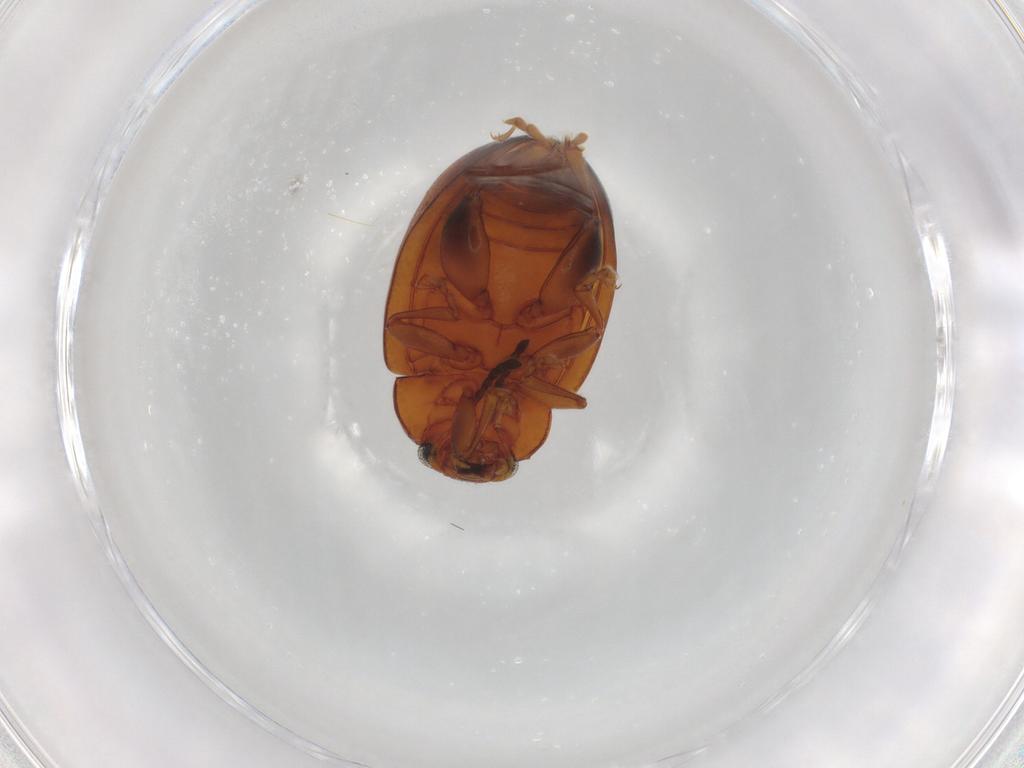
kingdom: Animalia
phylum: Arthropoda
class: Insecta
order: Coleoptera
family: Chrysomelidae
